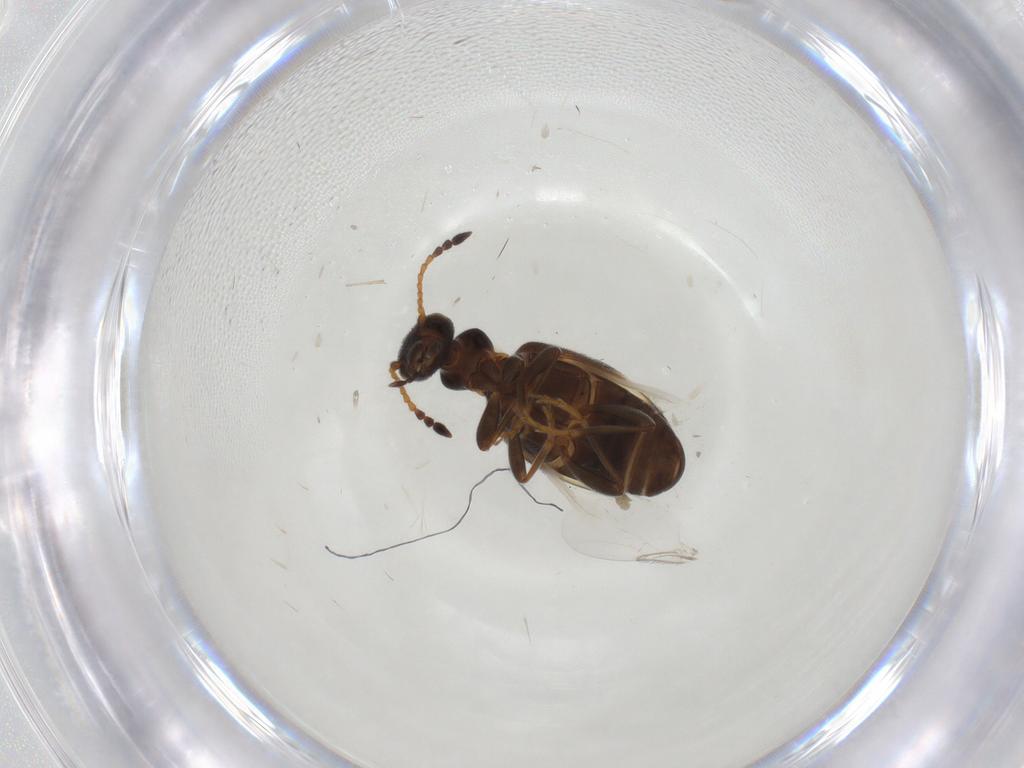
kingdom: Animalia
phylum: Arthropoda
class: Insecta
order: Coleoptera
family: Anthicidae
